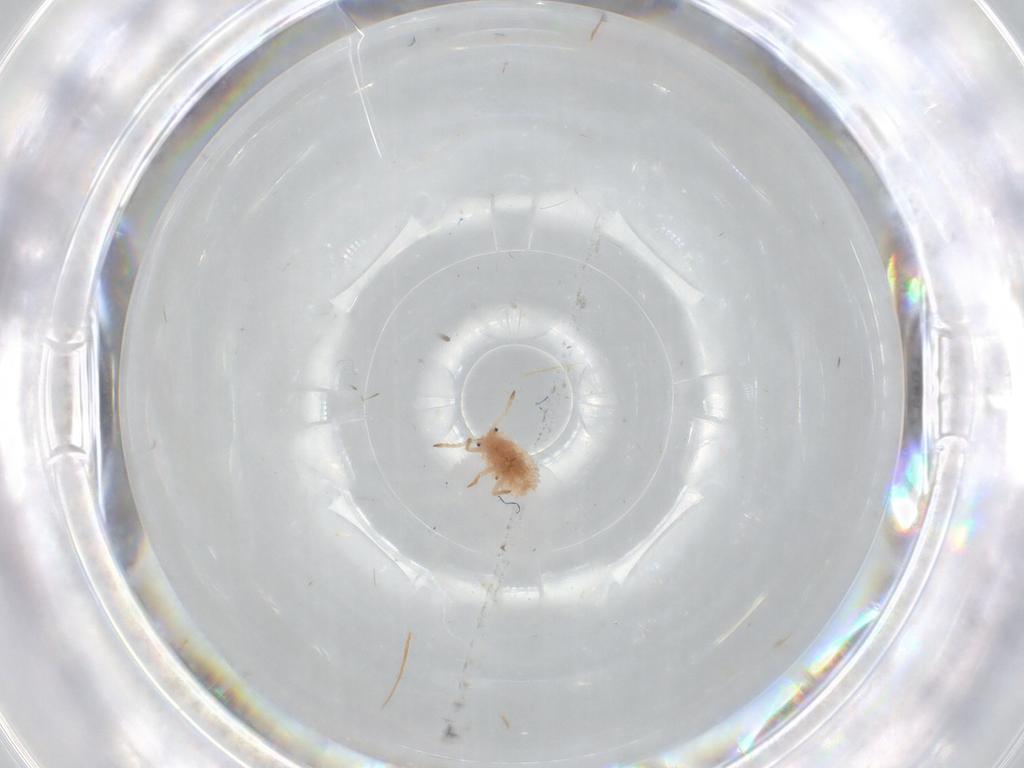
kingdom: Animalia
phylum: Arthropoda
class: Insecta
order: Hemiptera
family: Coccoidea_incertae_sedis
